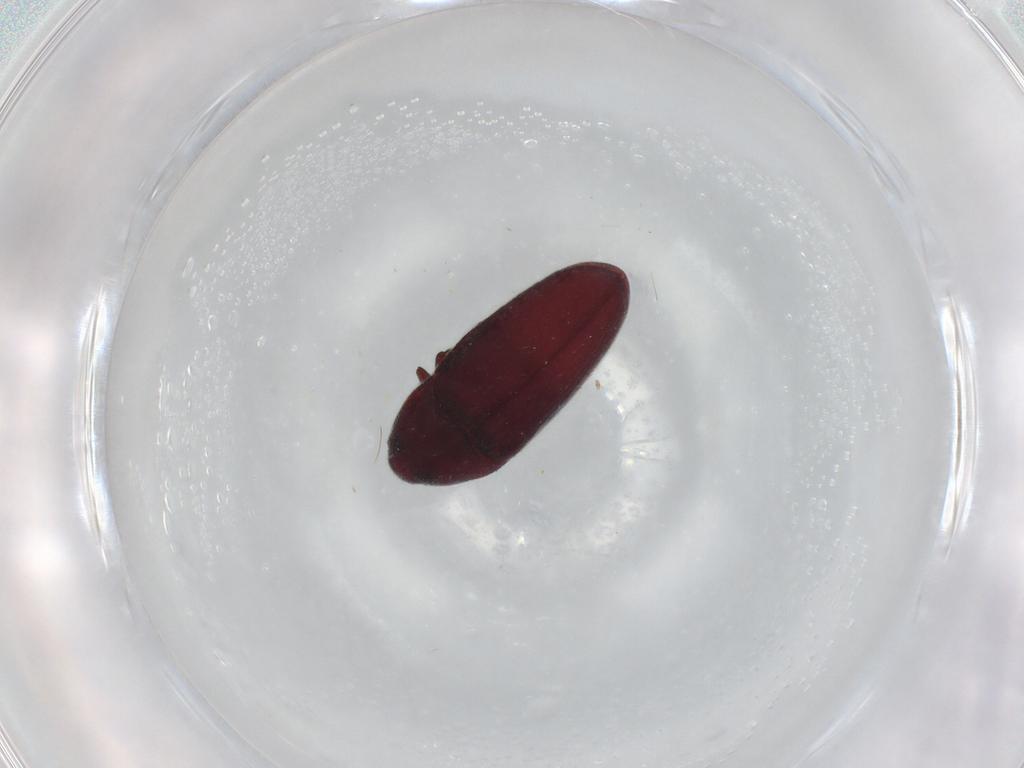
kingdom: Animalia
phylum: Arthropoda
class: Insecta
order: Coleoptera
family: Throscidae
